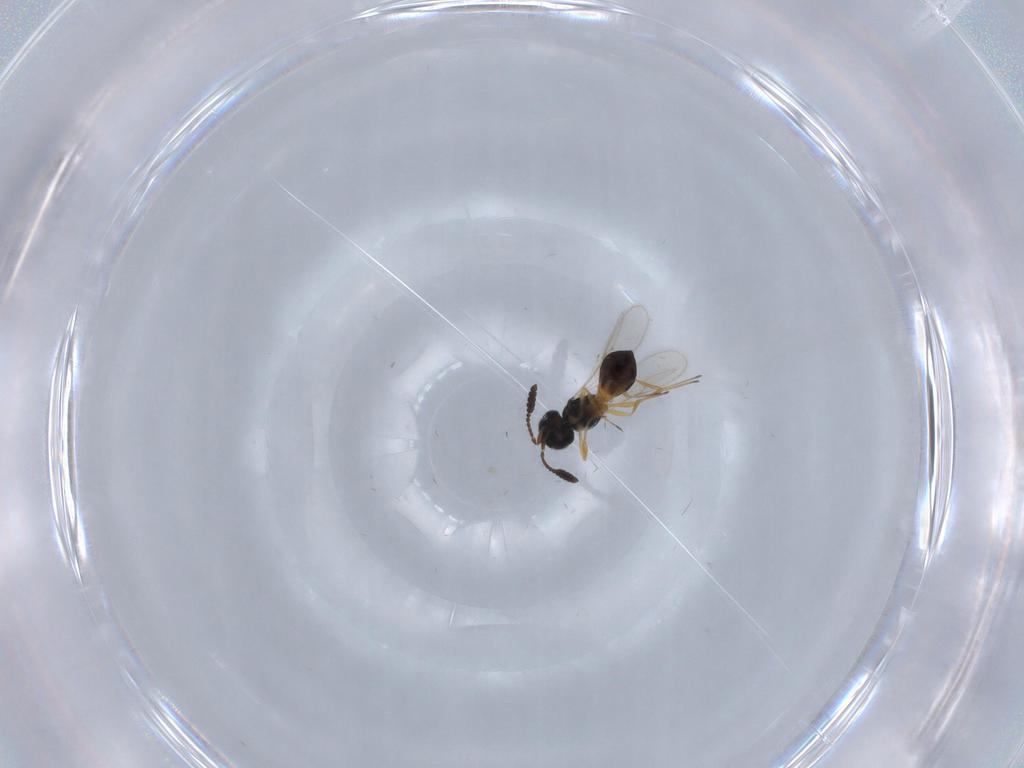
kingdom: Animalia
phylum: Arthropoda
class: Insecta
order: Hymenoptera
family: Scelionidae
